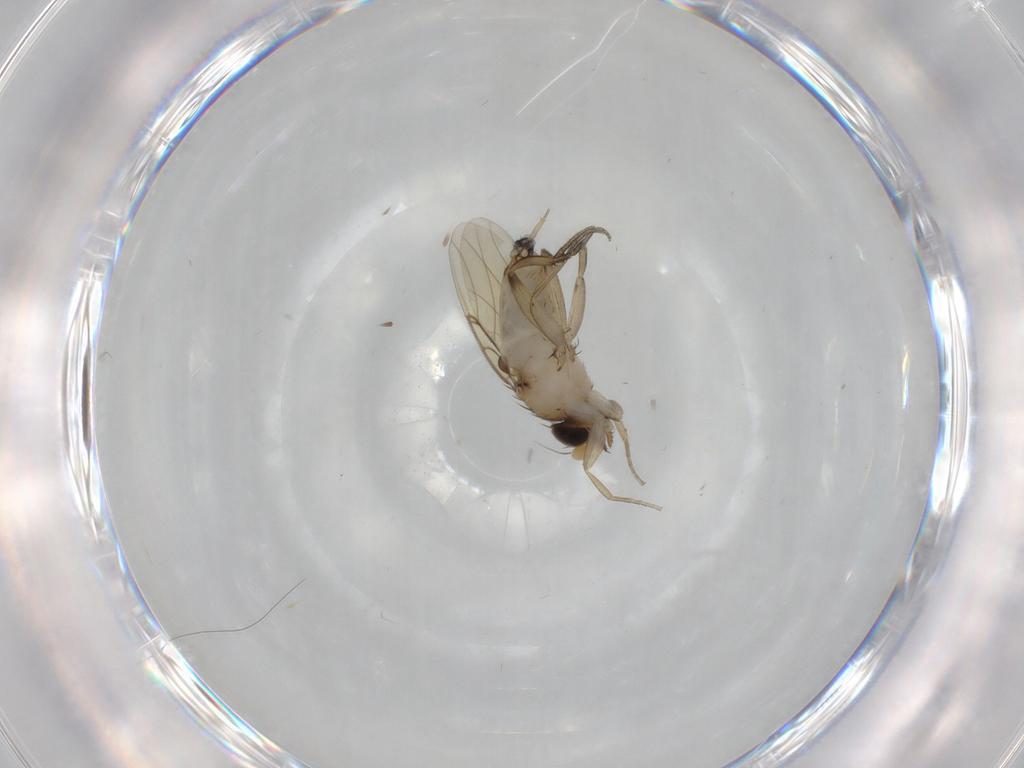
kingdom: Animalia
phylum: Arthropoda
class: Insecta
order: Diptera
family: Phoridae
